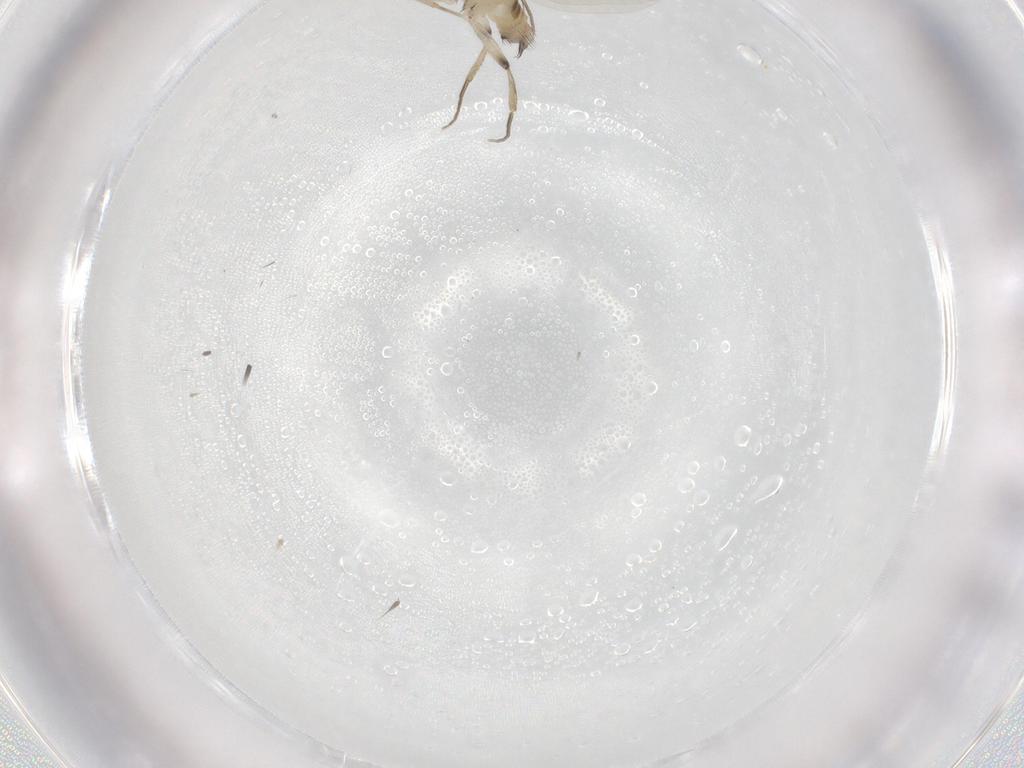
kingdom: Animalia
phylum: Arthropoda
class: Insecta
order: Diptera
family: Phoridae
